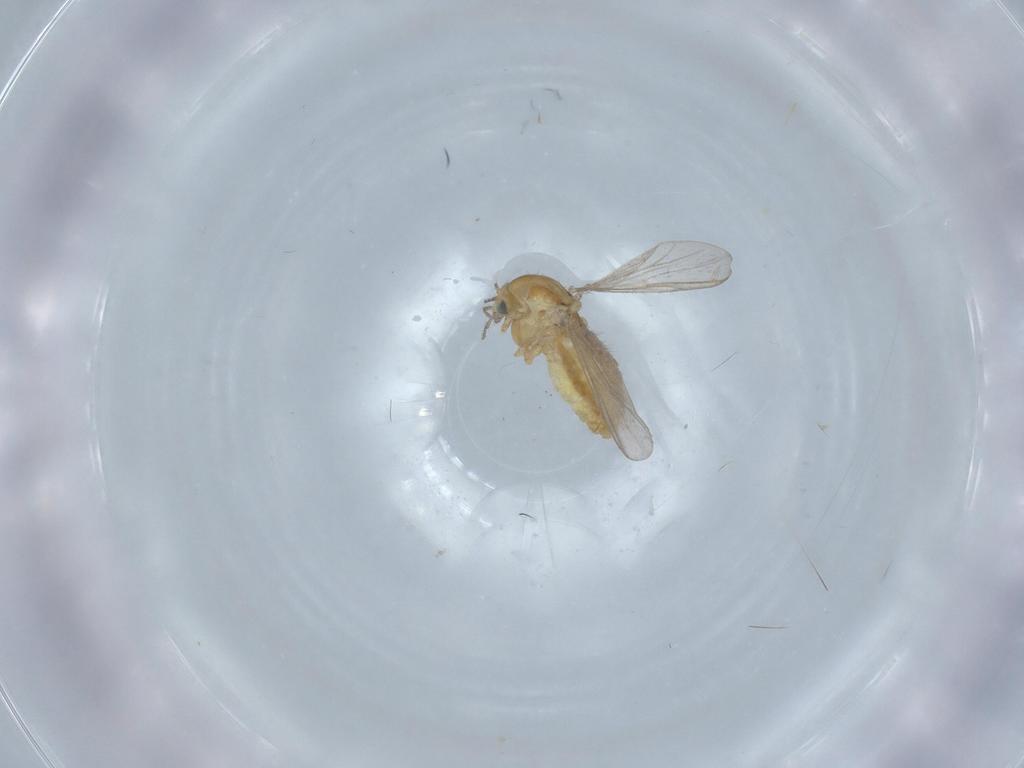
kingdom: Animalia
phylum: Arthropoda
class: Insecta
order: Diptera
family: Chironomidae
